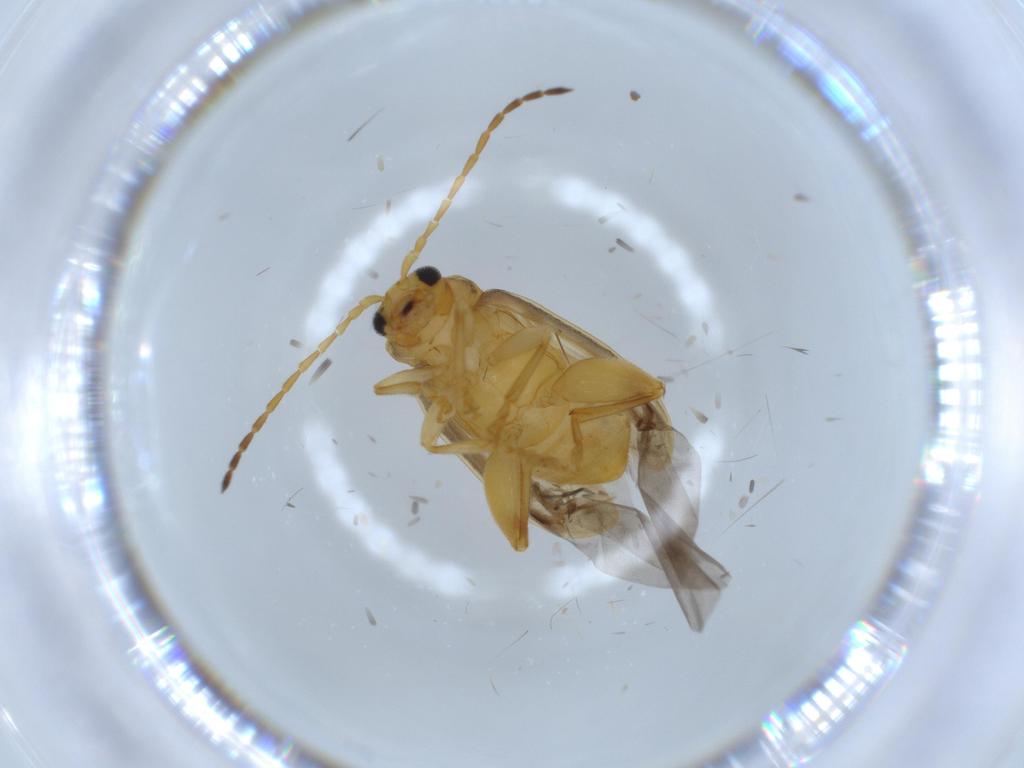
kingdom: Animalia
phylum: Arthropoda
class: Insecta
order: Coleoptera
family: Chrysomelidae
